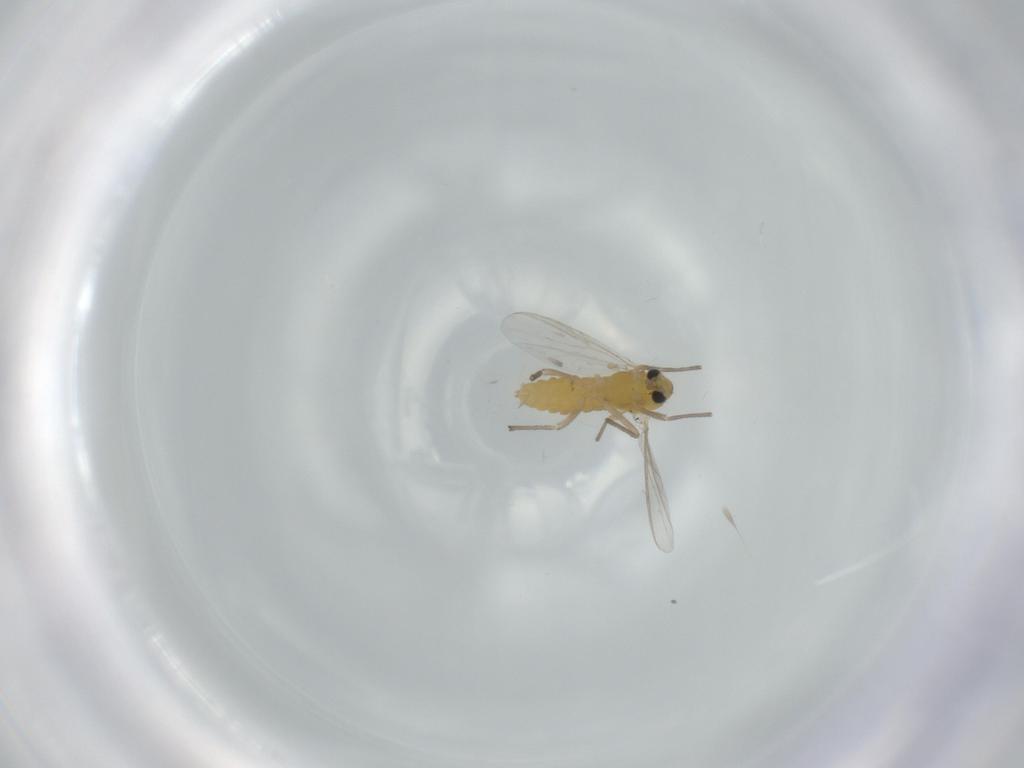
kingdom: Animalia
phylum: Arthropoda
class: Insecta
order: Diptera
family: Chironomidae
